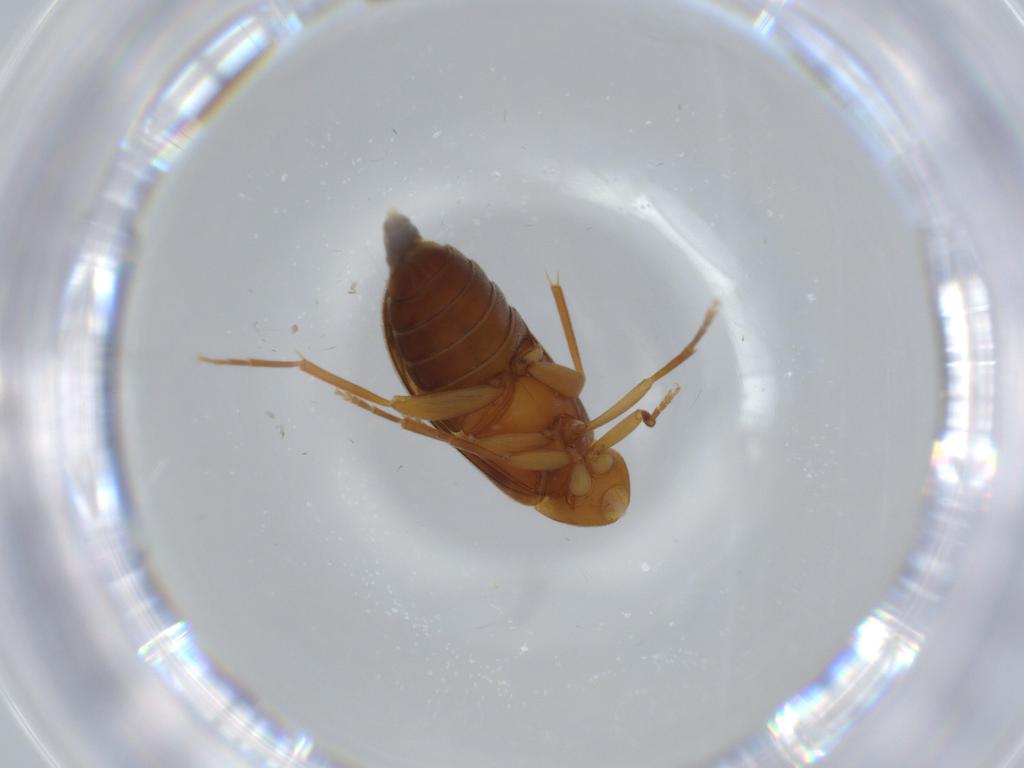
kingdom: Animalia
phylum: Arthropoda
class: Insecta
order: Coleoptera
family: Scraptiidae
